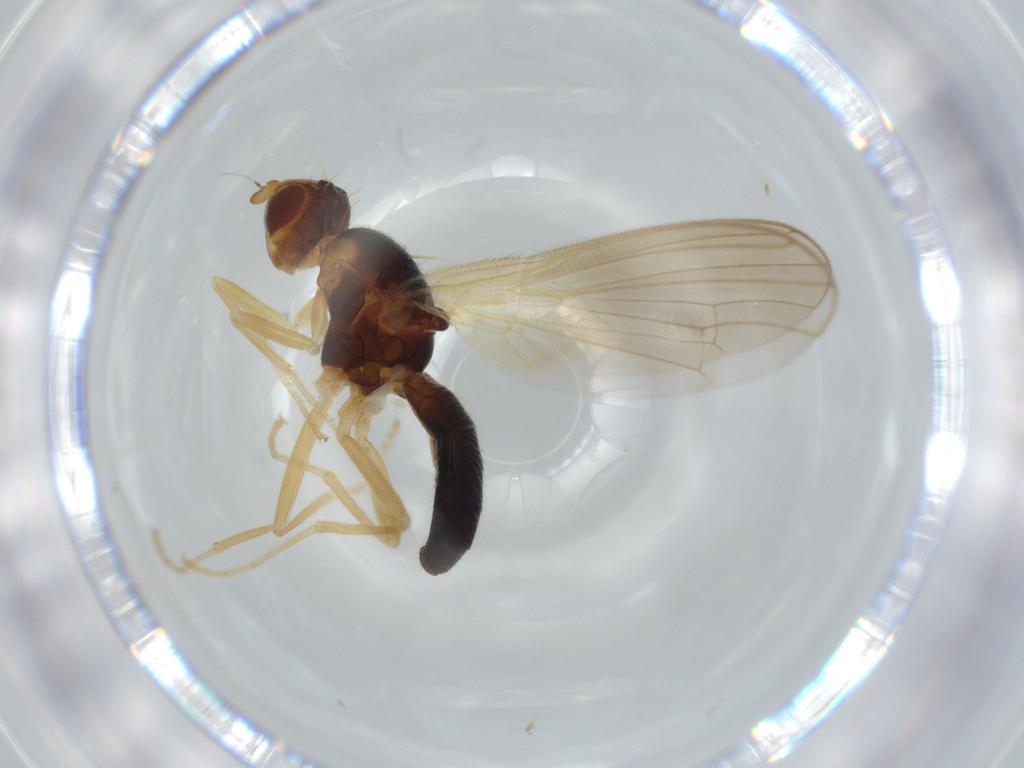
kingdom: Animalia
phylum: Arthropoda
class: Insecta
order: Diptera
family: Psilidae
